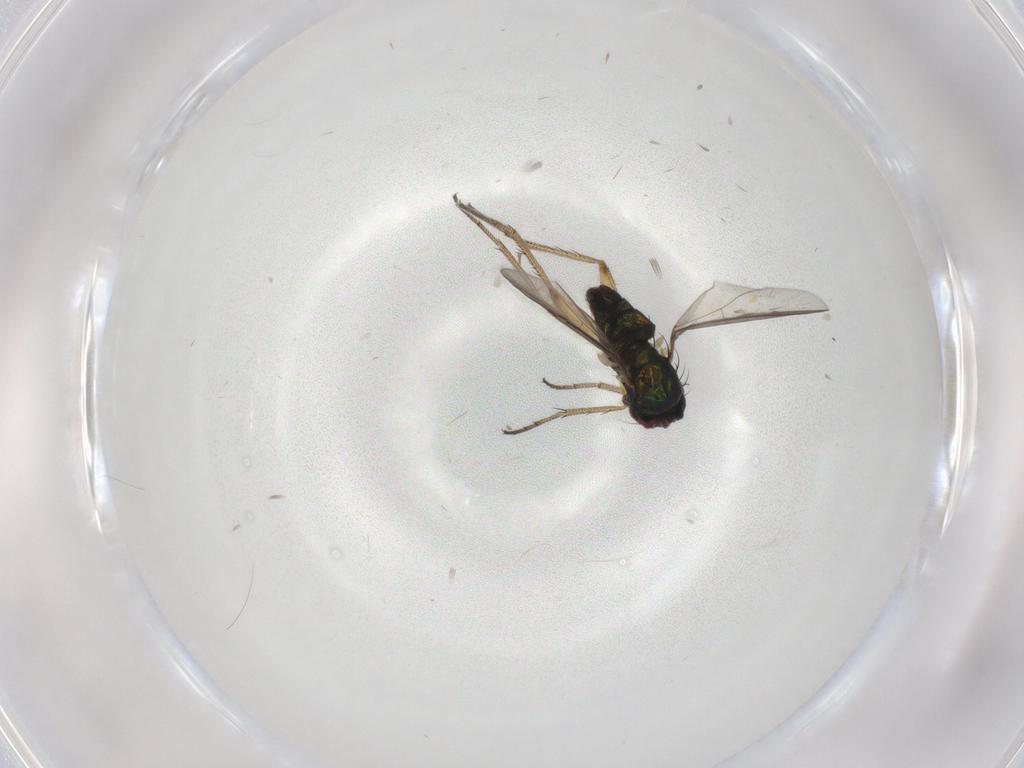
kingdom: Animalia
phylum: Arthropoda
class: Insecta
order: Diptera
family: Dolichopodidae
